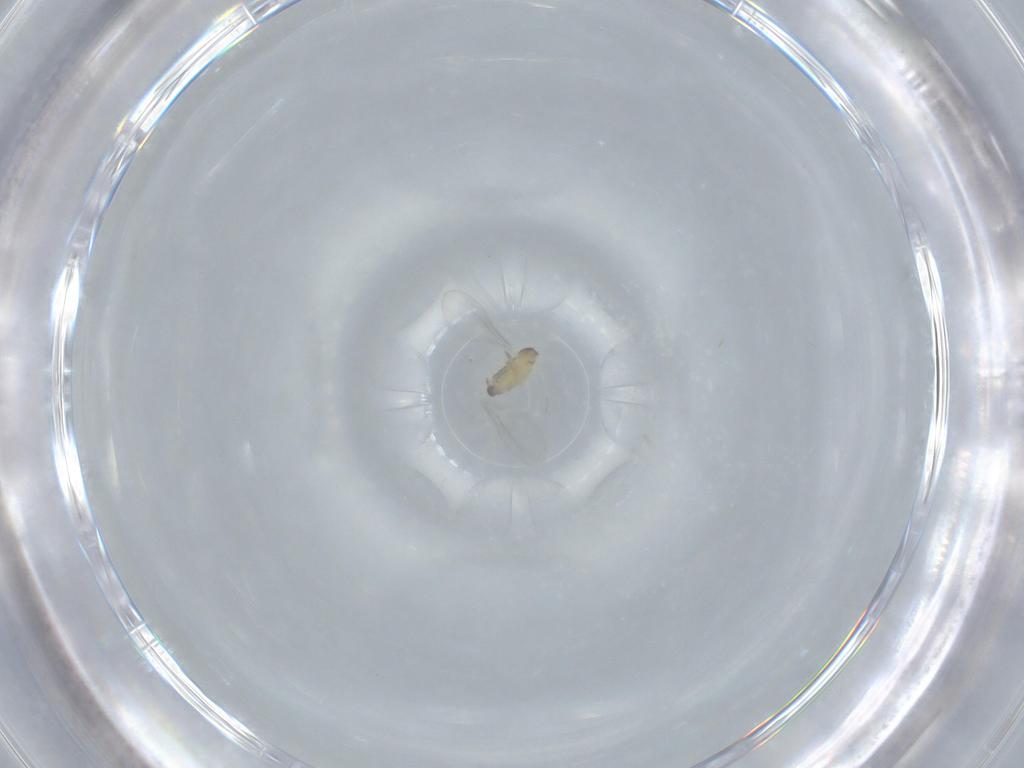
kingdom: Animalia
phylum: Arthropoda
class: Insecta
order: Diptera
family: Cecidomyiidae
